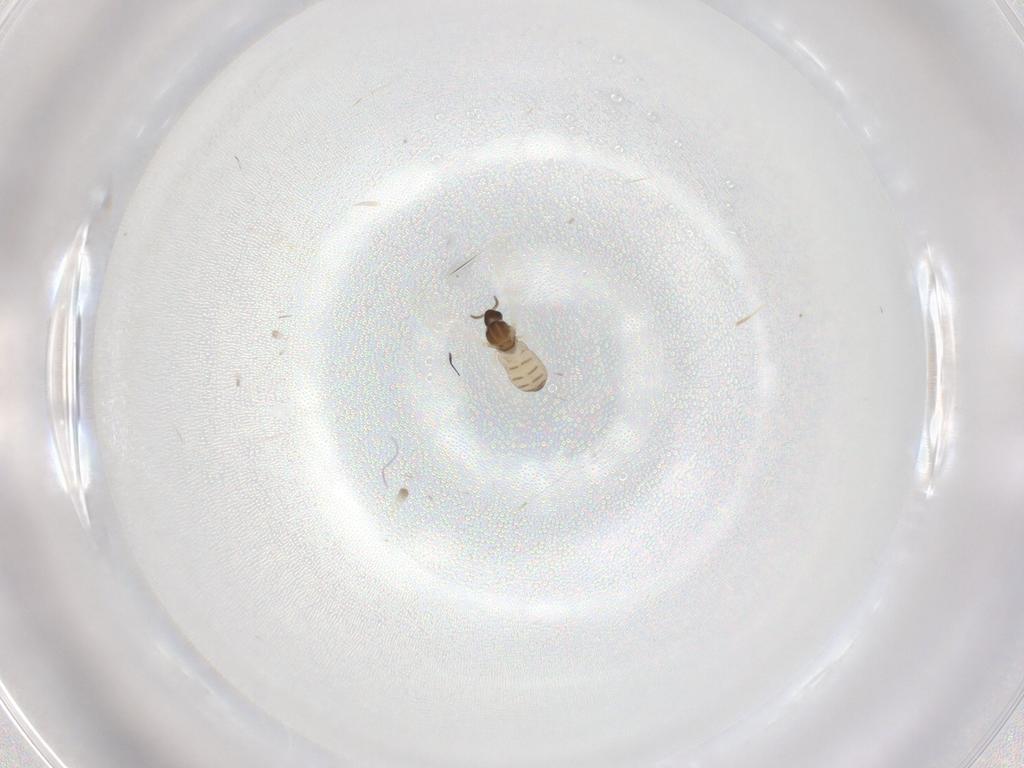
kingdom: Animalia
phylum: Arthropoda
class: Insecta
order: Diptera
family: Cecidomyiidae
